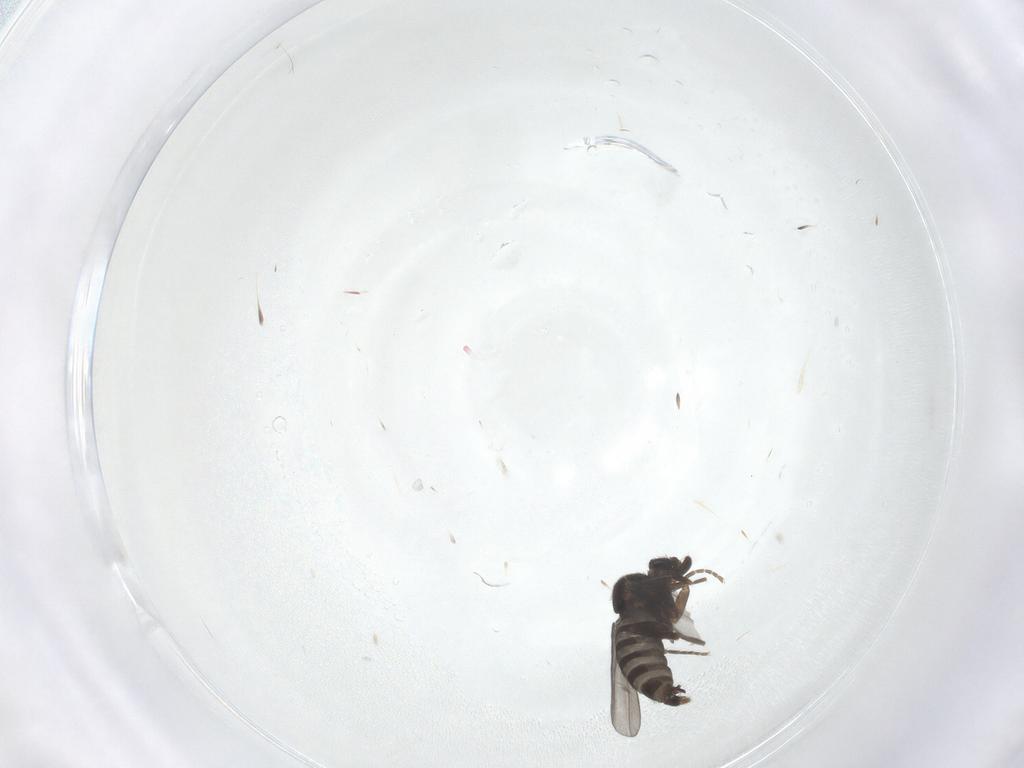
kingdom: Animalia
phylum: Arthropoda
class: Insecta
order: Diptera
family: Phoridae
